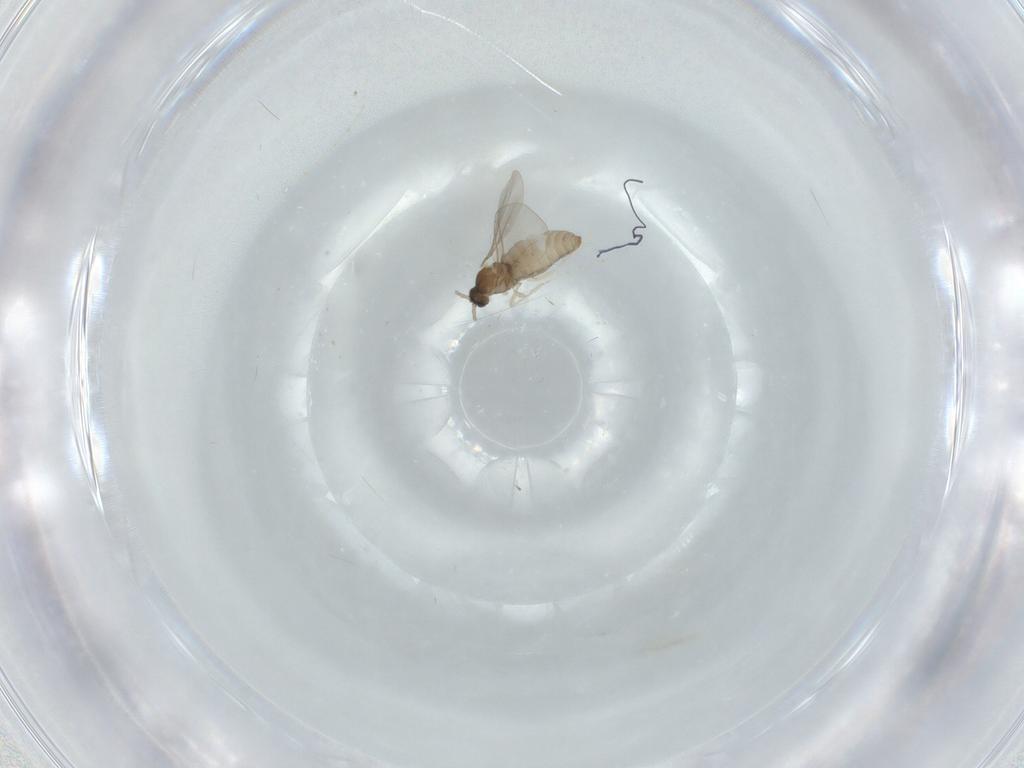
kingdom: Animalia
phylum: Arthropoda
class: Insecta
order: Diptera
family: Cecidomyiidae
